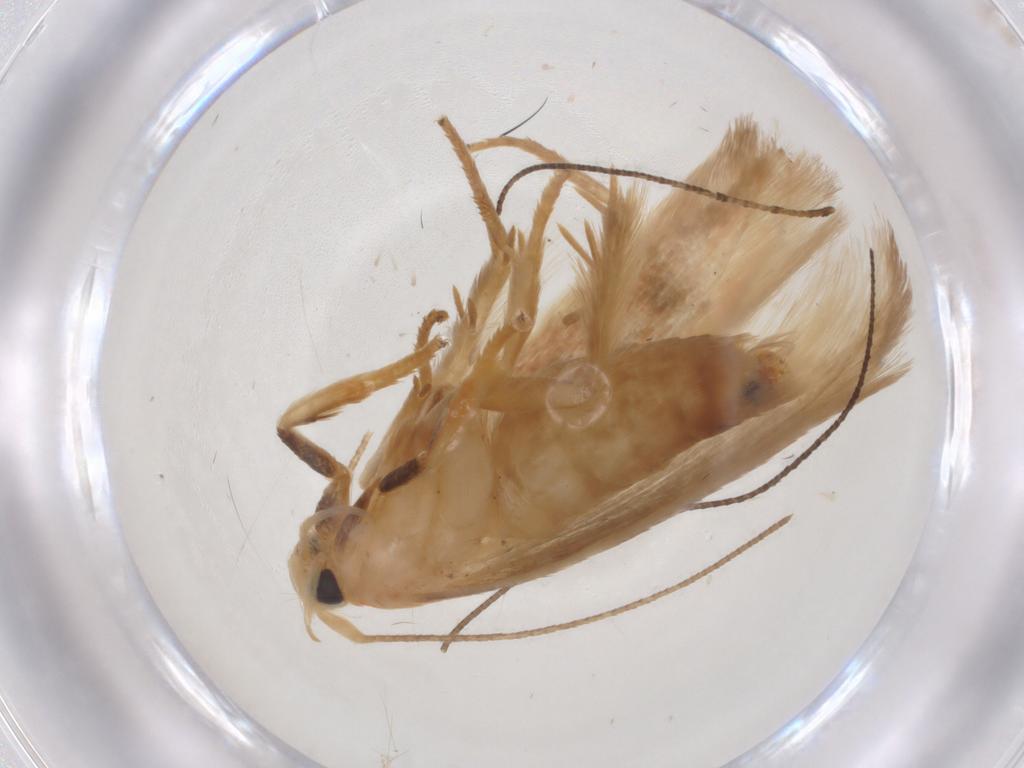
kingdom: Animalia
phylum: Arthropoda
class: Insecta
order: Lepidoptera
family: Geometridae
